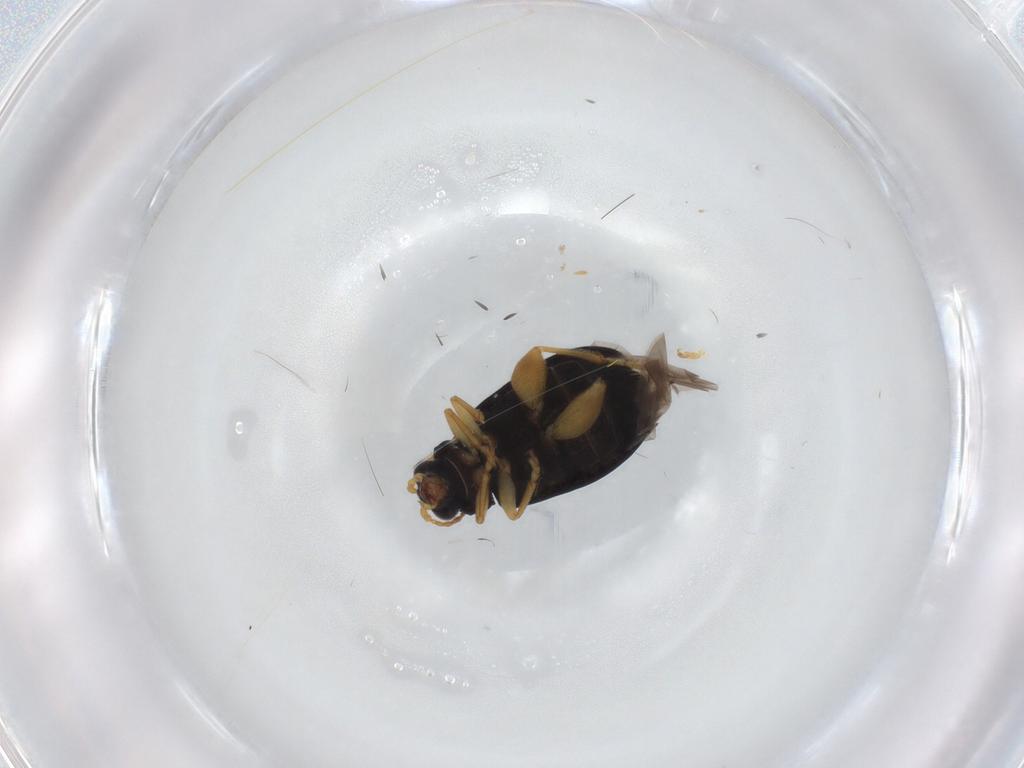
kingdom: Animalia
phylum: Arthropoda
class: Insecta
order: Coleoptera
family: Chrysomelidae
